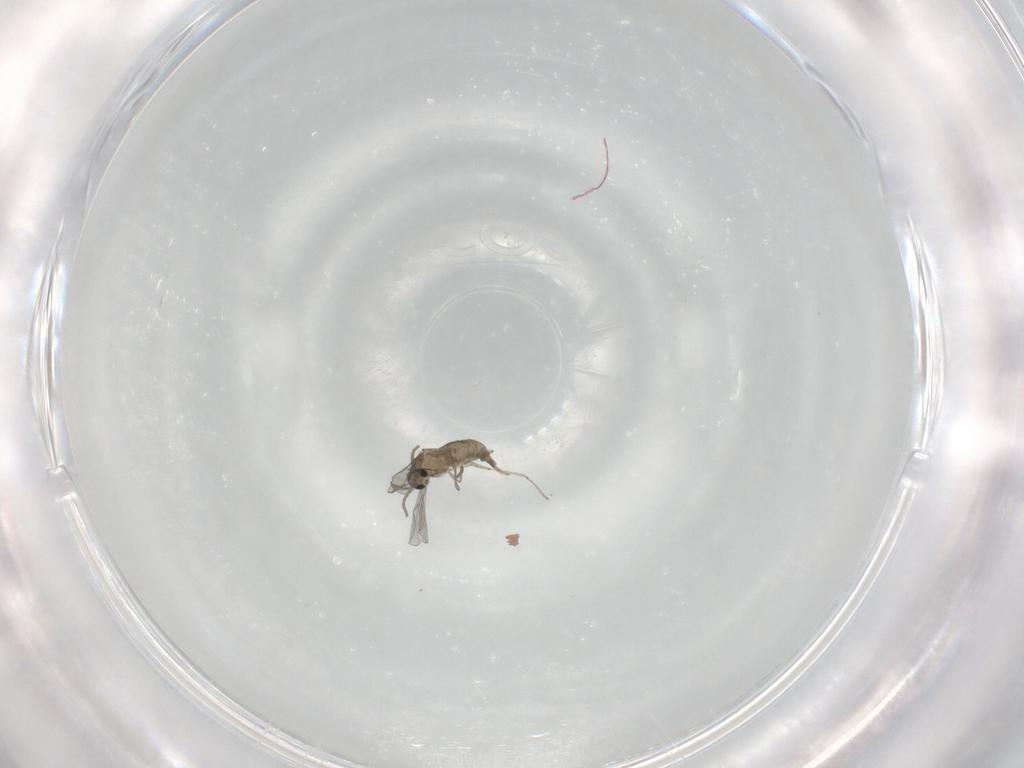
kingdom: Animalia
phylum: Arthropoda
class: Insecta
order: Diptera
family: Cecidomyiidae
